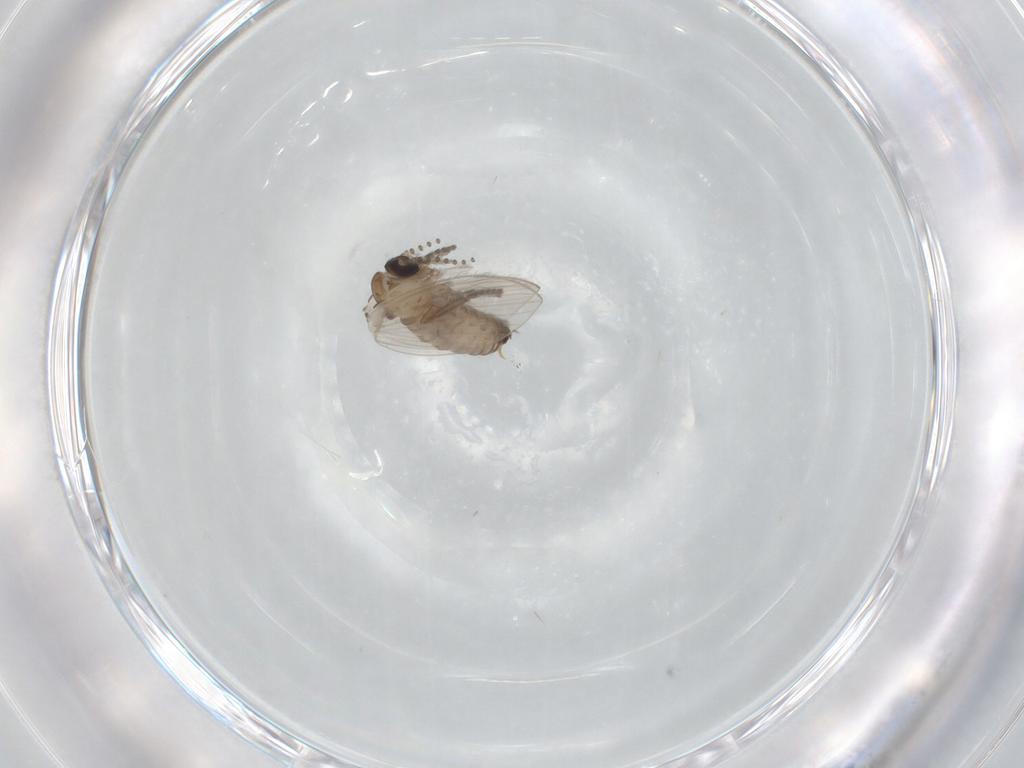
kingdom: Animalia
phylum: Arthropoda
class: Insecta
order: Diptera
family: Psychodidae
